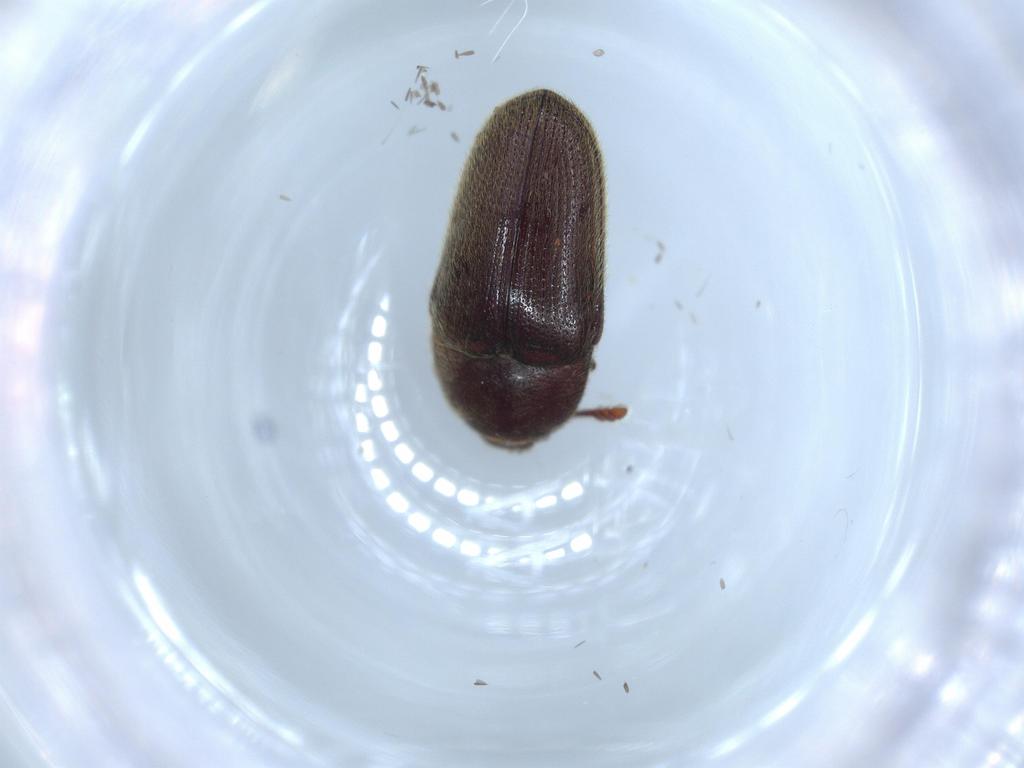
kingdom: Animalia
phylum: Arthropoda
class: Insecta
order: Coleoptera
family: Throscidae
